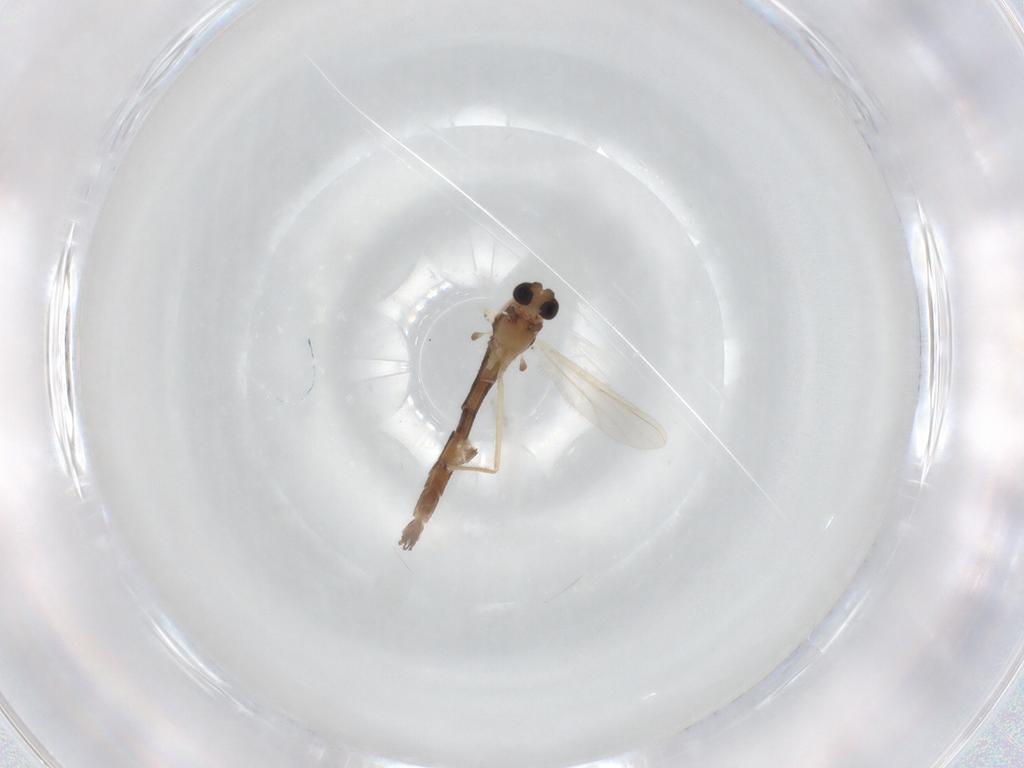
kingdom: Animalia
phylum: Arthropoda
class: Insecta
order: Diptera
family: Chironomidae
